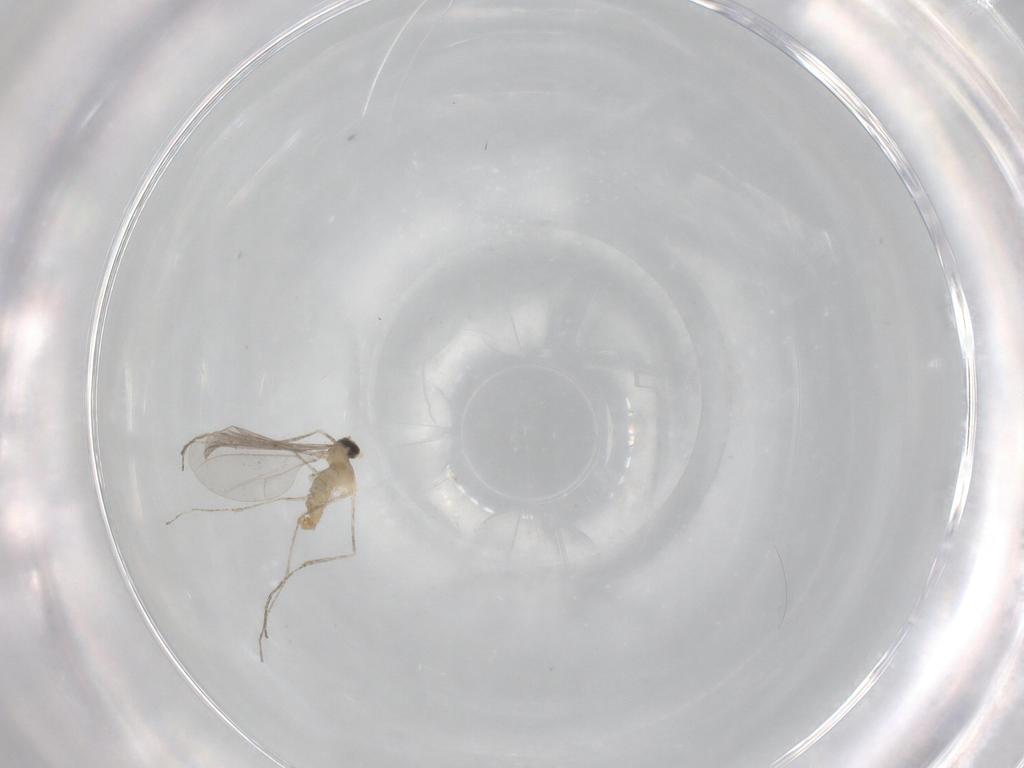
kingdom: Animalia
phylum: Arthropoda
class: Insecta
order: Diptera
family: Cecidomyiidae
